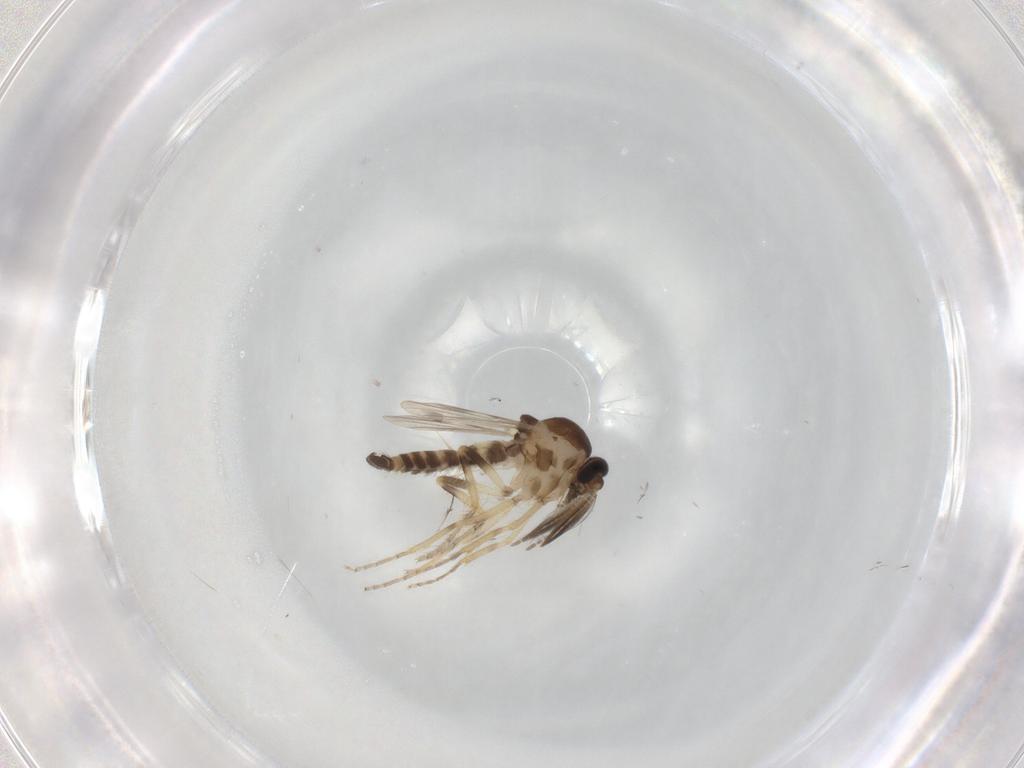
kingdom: Animalia
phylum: Arthropoda
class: Insecta
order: Diptera
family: Ceratopogonidae
